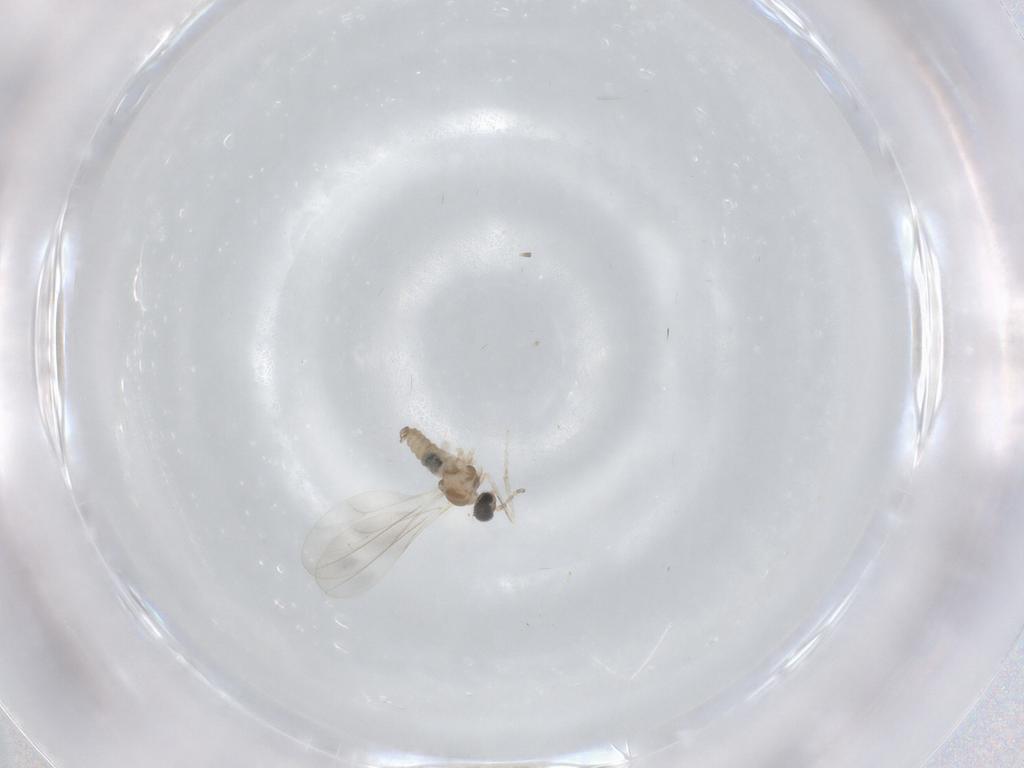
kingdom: Animalia
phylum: Arthropoda
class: Insecta
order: Diptera
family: Cecidomyiidae
